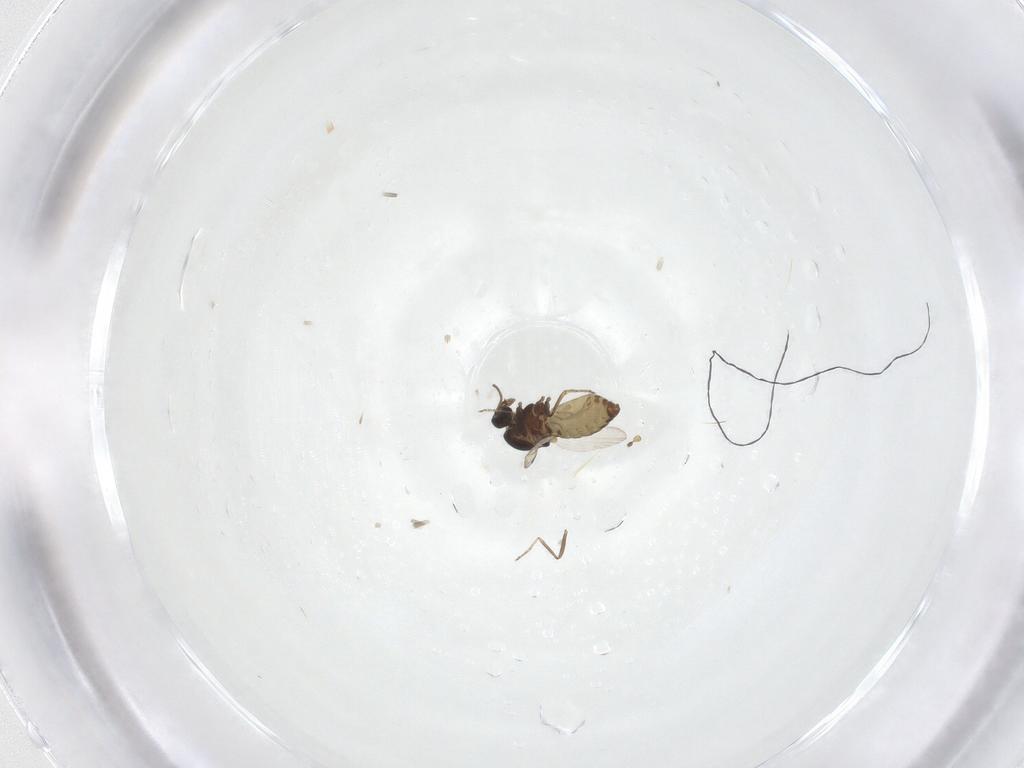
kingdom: Animalia
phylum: Arthropoda
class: Insecta
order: Diptera
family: Ceratopogonidae
